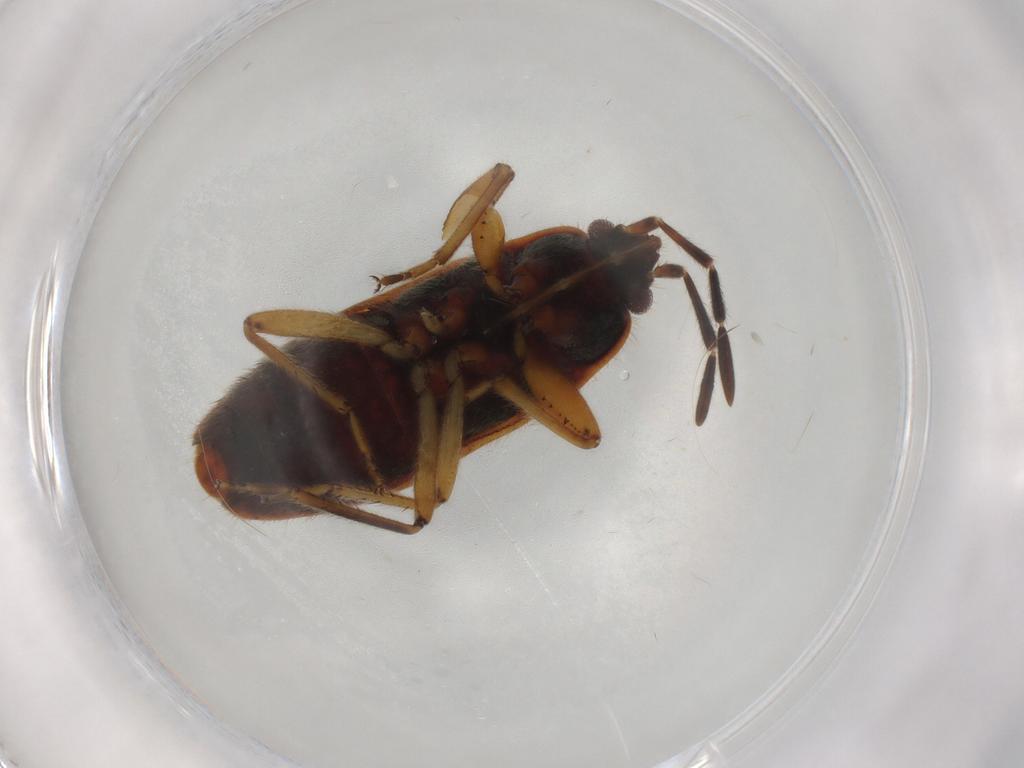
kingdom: Animalia
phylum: Arthropoda
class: Insecta
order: Hemiptera
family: Rhyparochromidae
